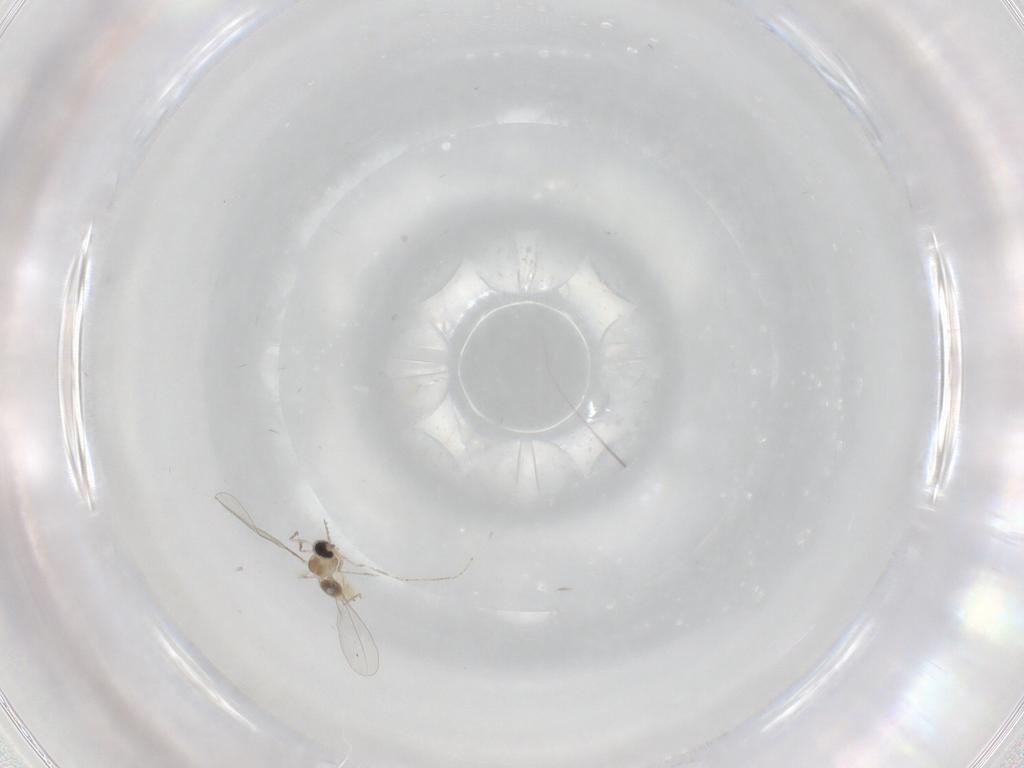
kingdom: Animalia
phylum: Arthropoda
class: Insecta
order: Diptera
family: Cecidomyiidae
